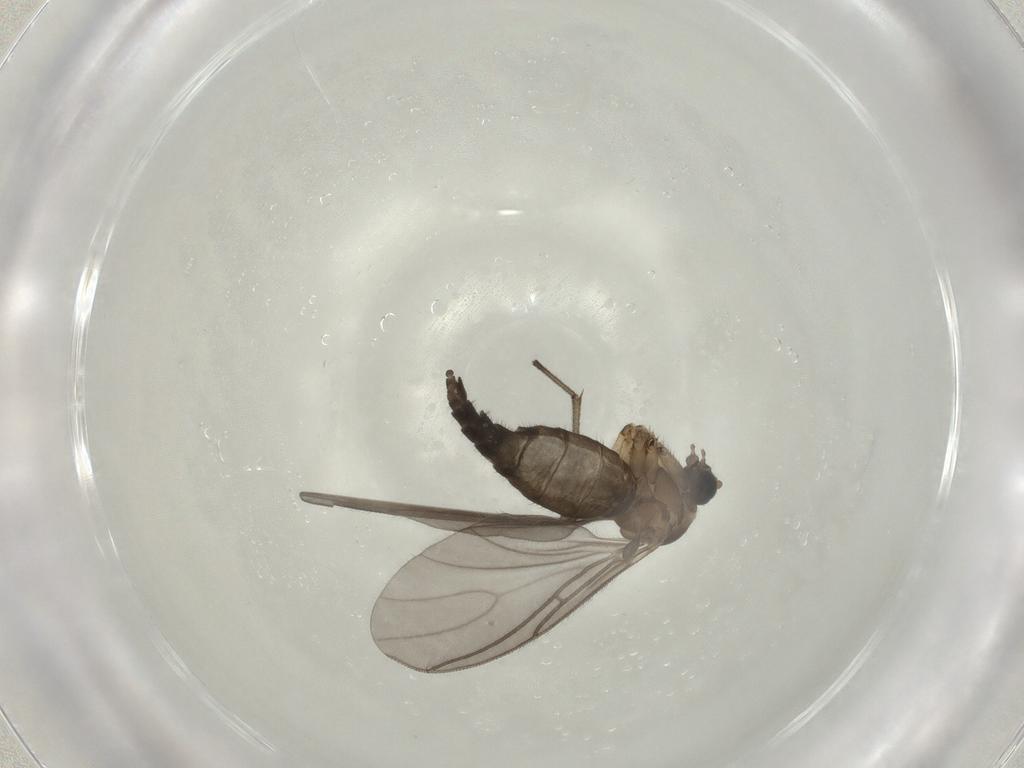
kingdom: Animalia
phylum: Arthropoda
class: Insecta
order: Diptera
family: Sciaridae
